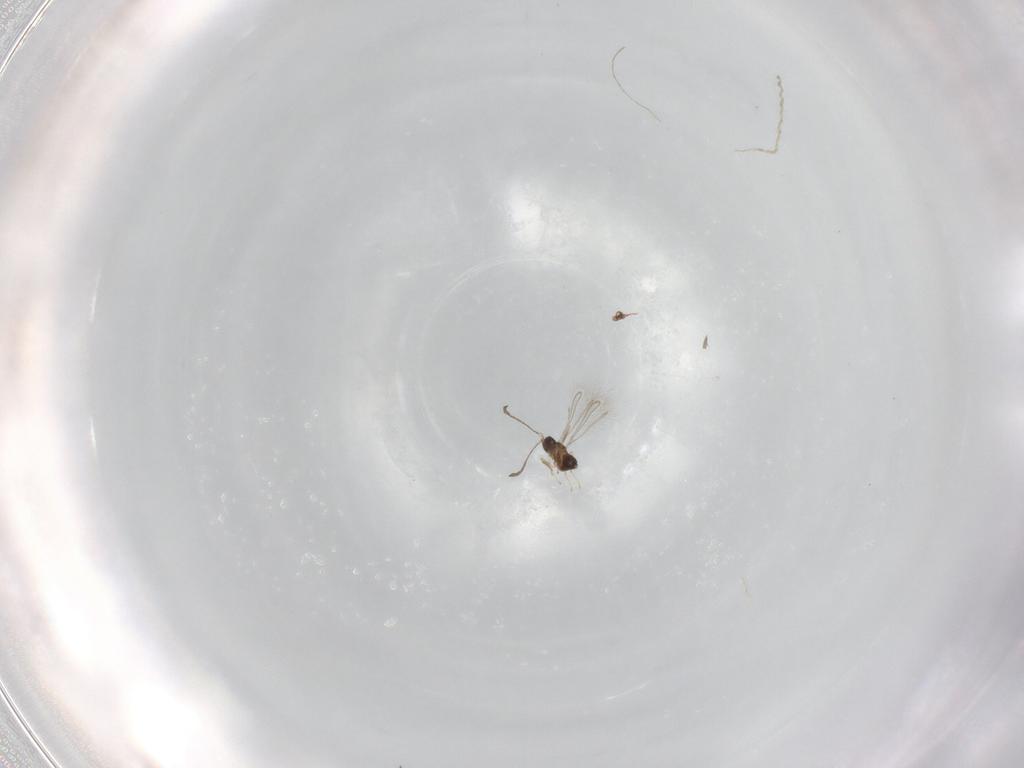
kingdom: Animalia
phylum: Arthropoda
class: Insecta
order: Hymenoptera
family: Mymaridae
